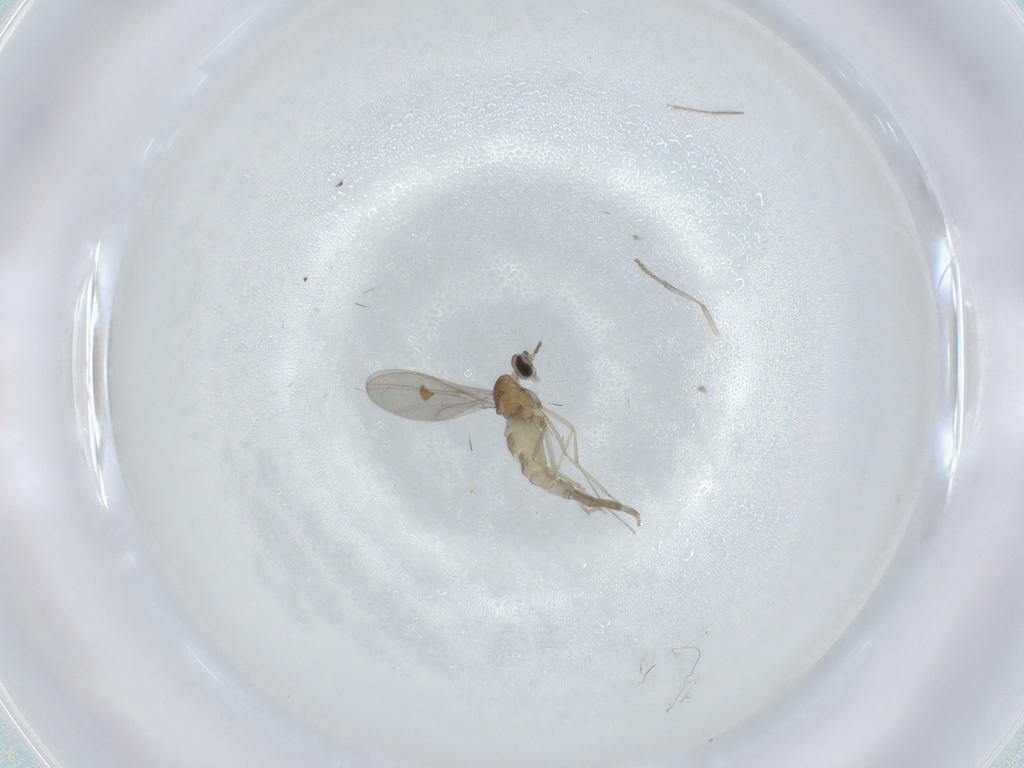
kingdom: Animalia
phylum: Arthropoda
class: Insecta
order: Diptera
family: Cecidomyiidae
